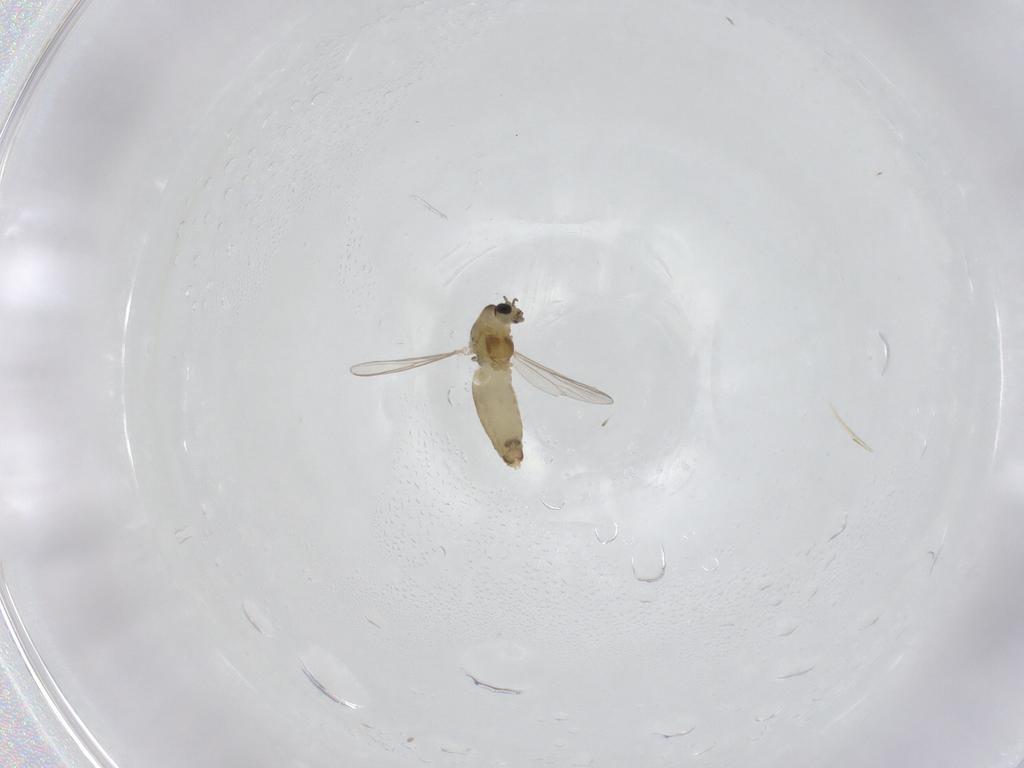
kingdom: Animalia
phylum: Arthropoda
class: Insecta
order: Diptera
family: Chironomidae
